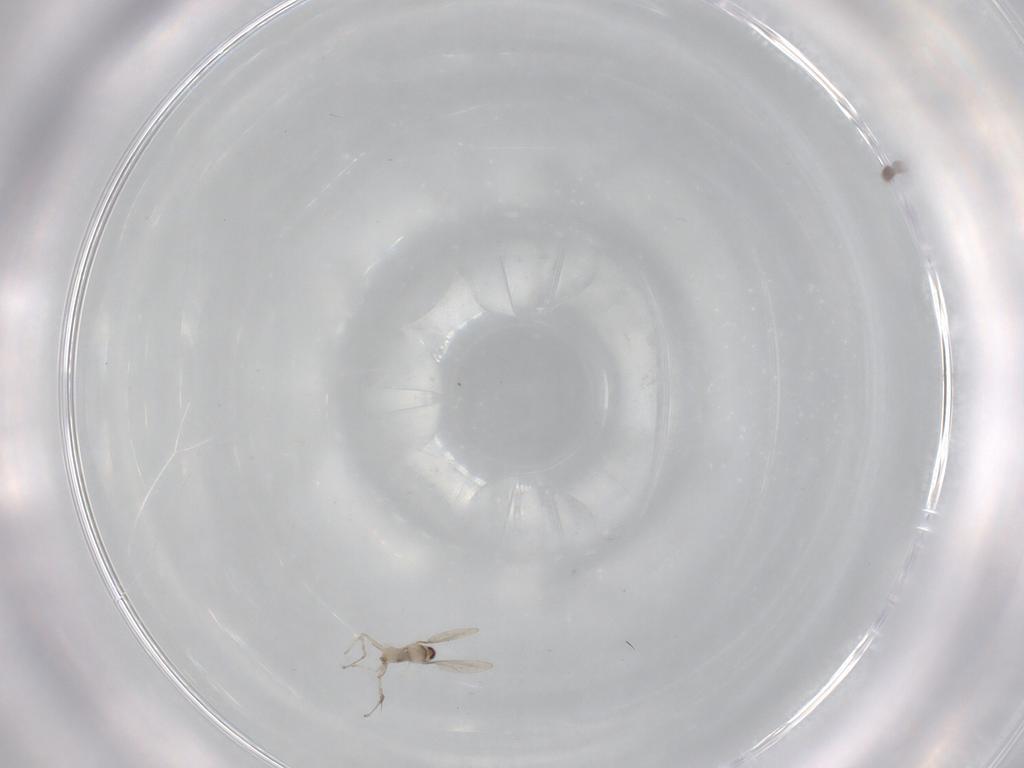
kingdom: Animalia
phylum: Arthropoda
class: Insecta
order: Diptera
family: Cecidomyiidae
